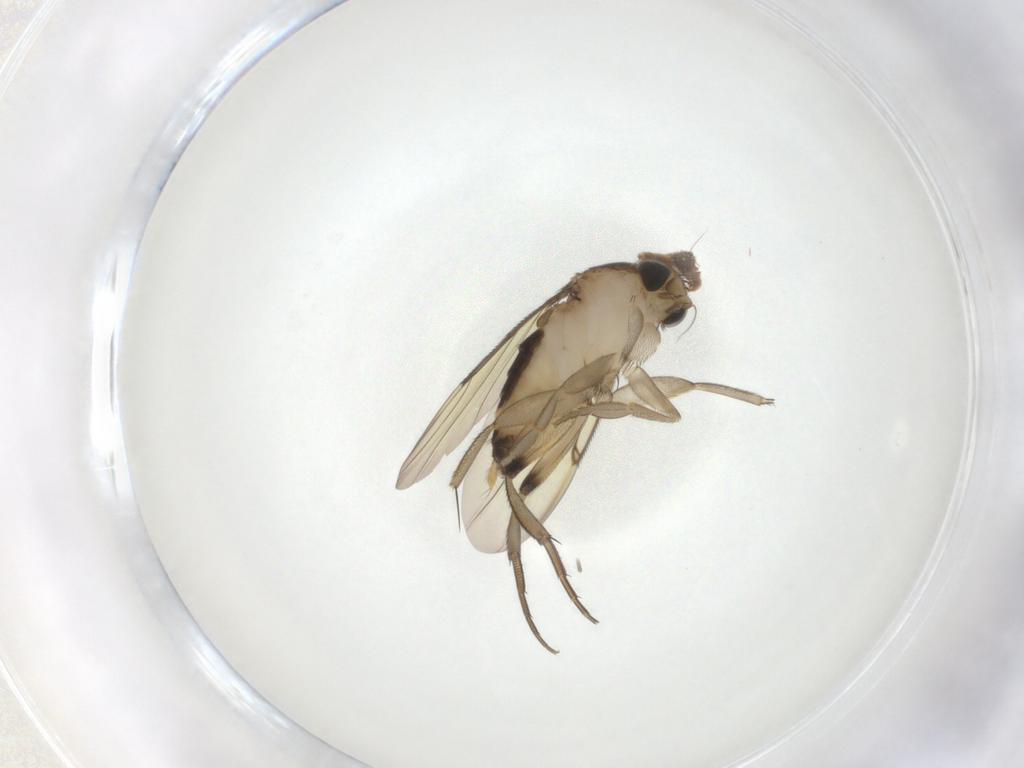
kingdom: Animalia
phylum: Arthropoda
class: Insecta
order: Diptera
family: Phoridae
